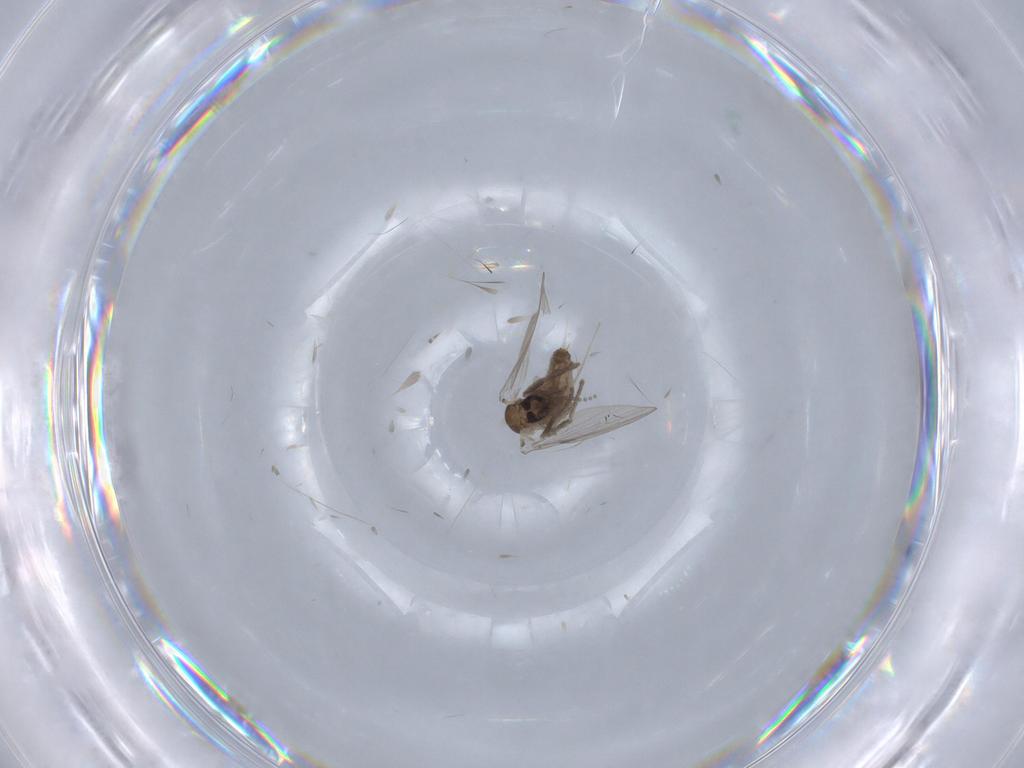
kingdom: Animalia
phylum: Arthropoda
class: Insecta
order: Diptera
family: Psychodidae
